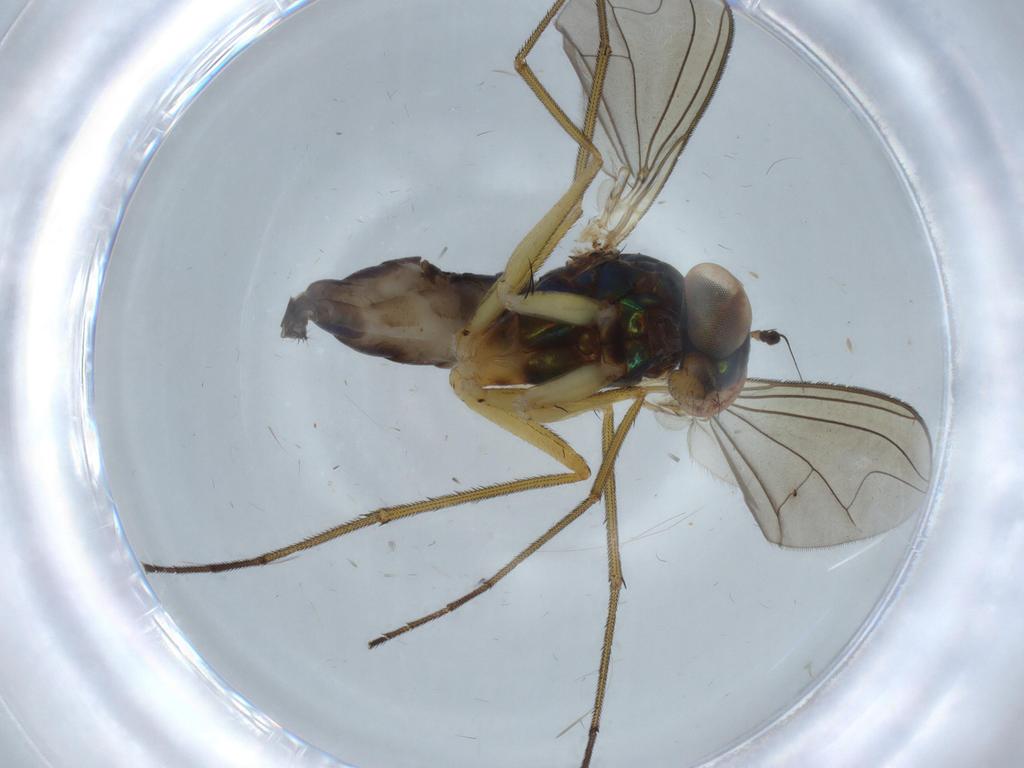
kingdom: Animalia
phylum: Arthropoda
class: Insecta
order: Diptera
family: Dolichopodidae
